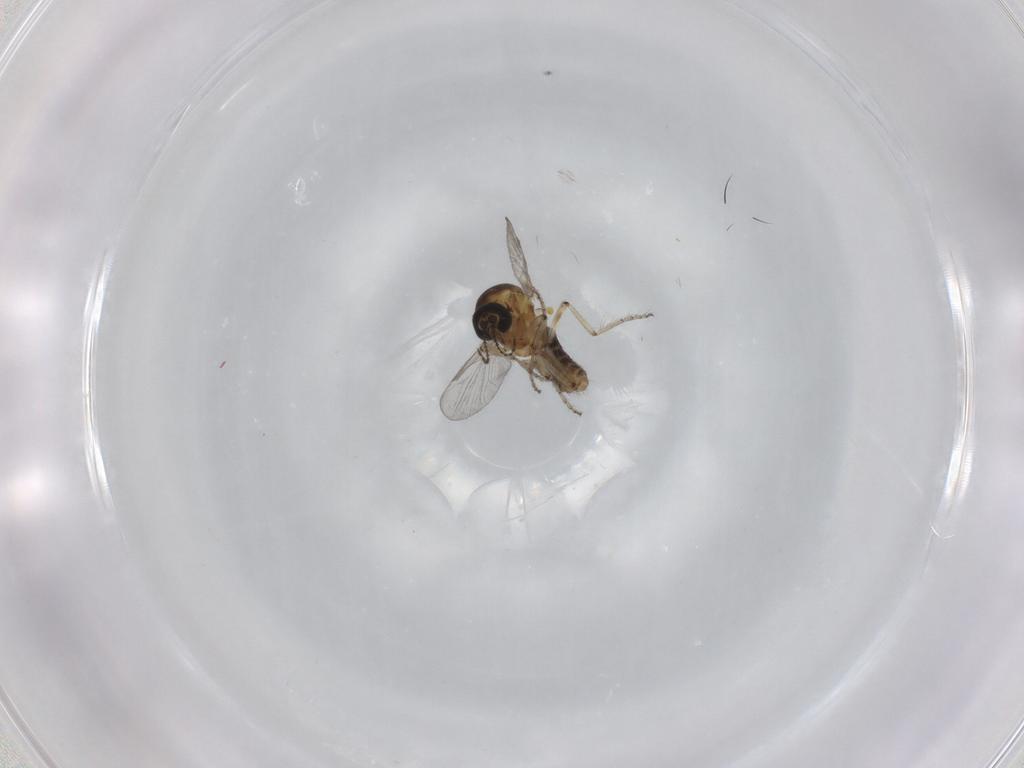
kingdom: Animalia
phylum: Arthropoda
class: Insecta
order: Diptera
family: Ceratopogonidae
